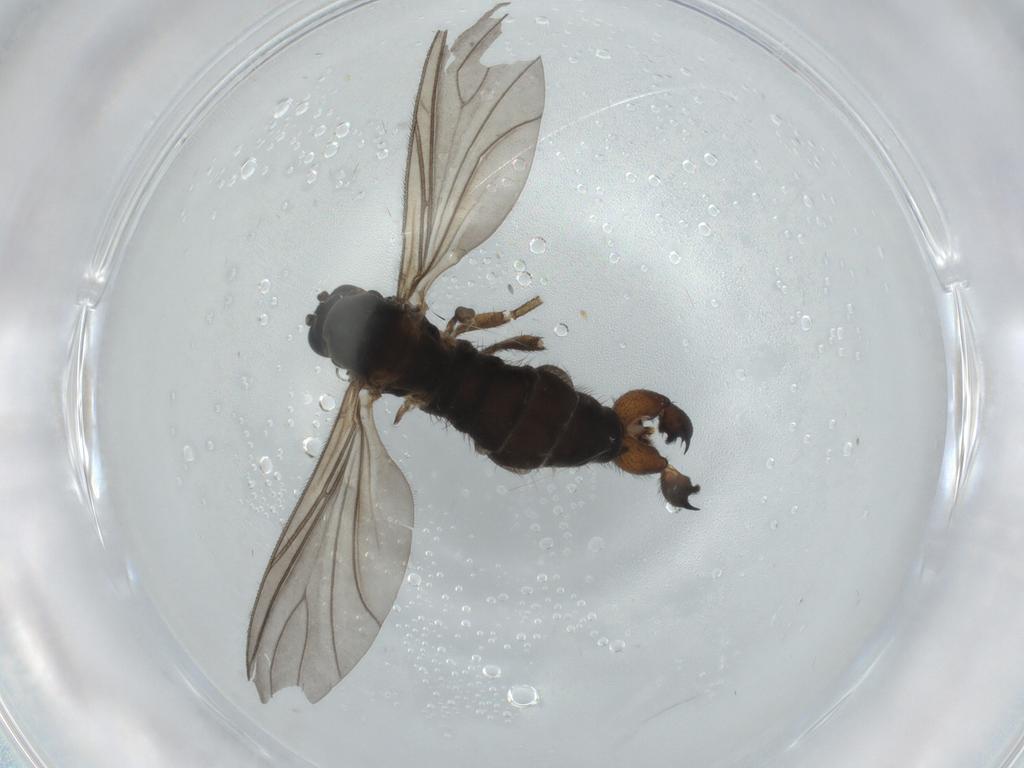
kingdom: Animalia
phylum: Arthropoda
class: Insecta
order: Diptera
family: Sciaridae
